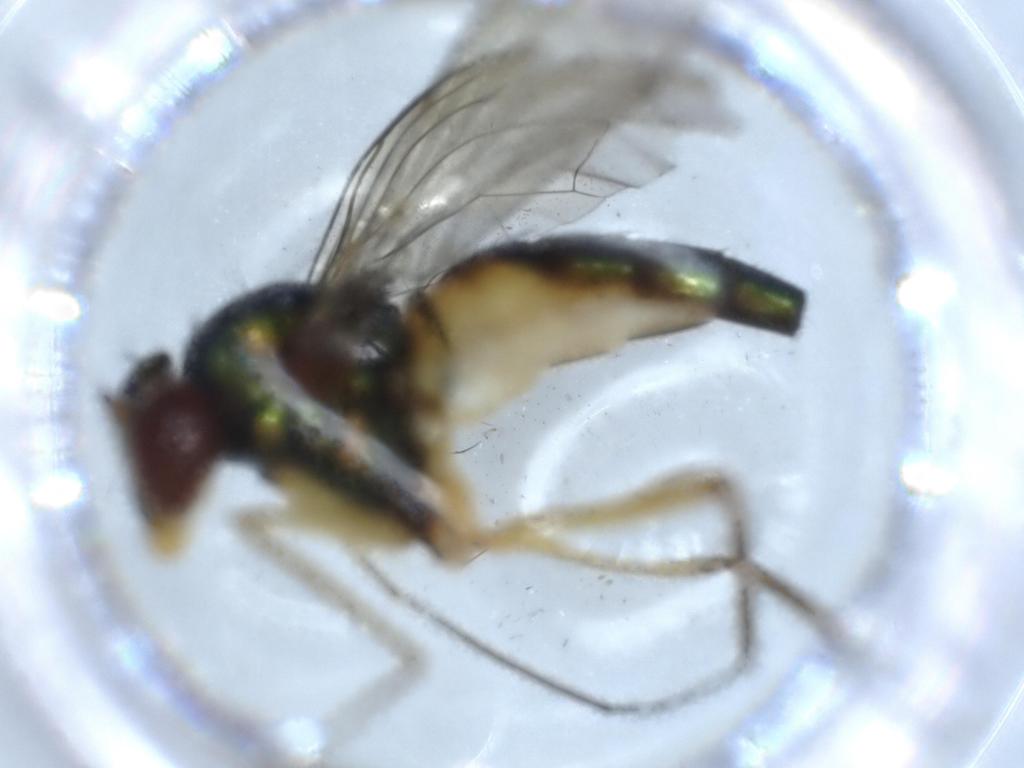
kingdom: Animalia
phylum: Arthropoda
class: Insecta
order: Diptera
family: Dolichopodidae
